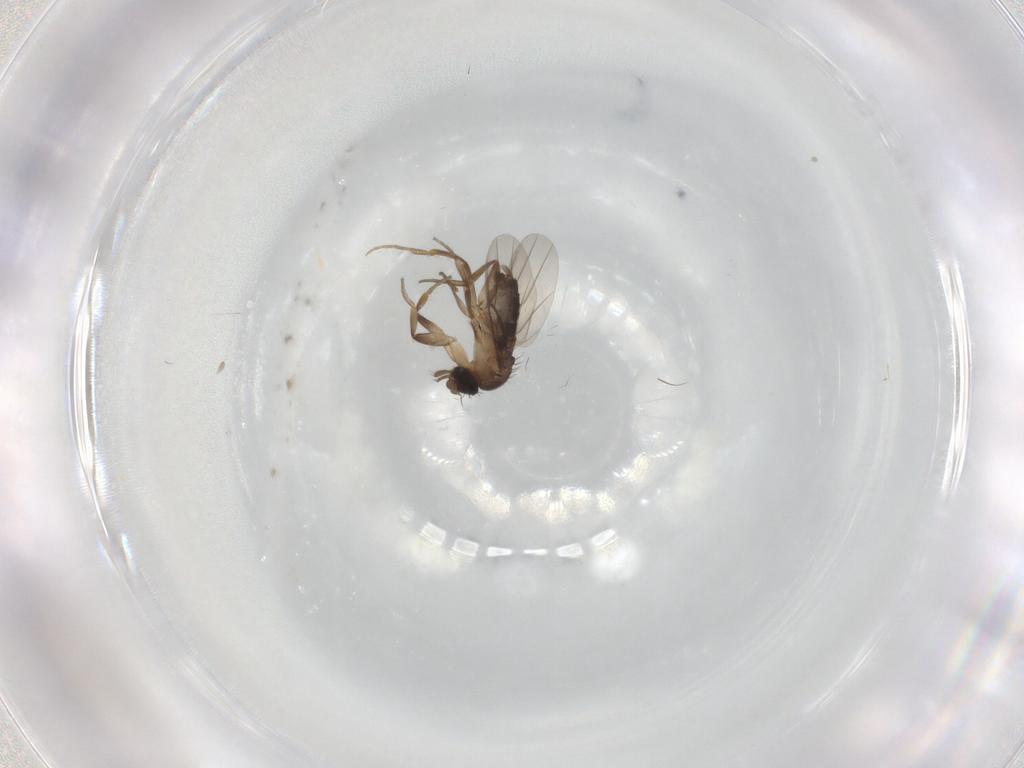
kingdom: Animalia
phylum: Arthropoda
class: Insecta
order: Diptera
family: Phoridae
